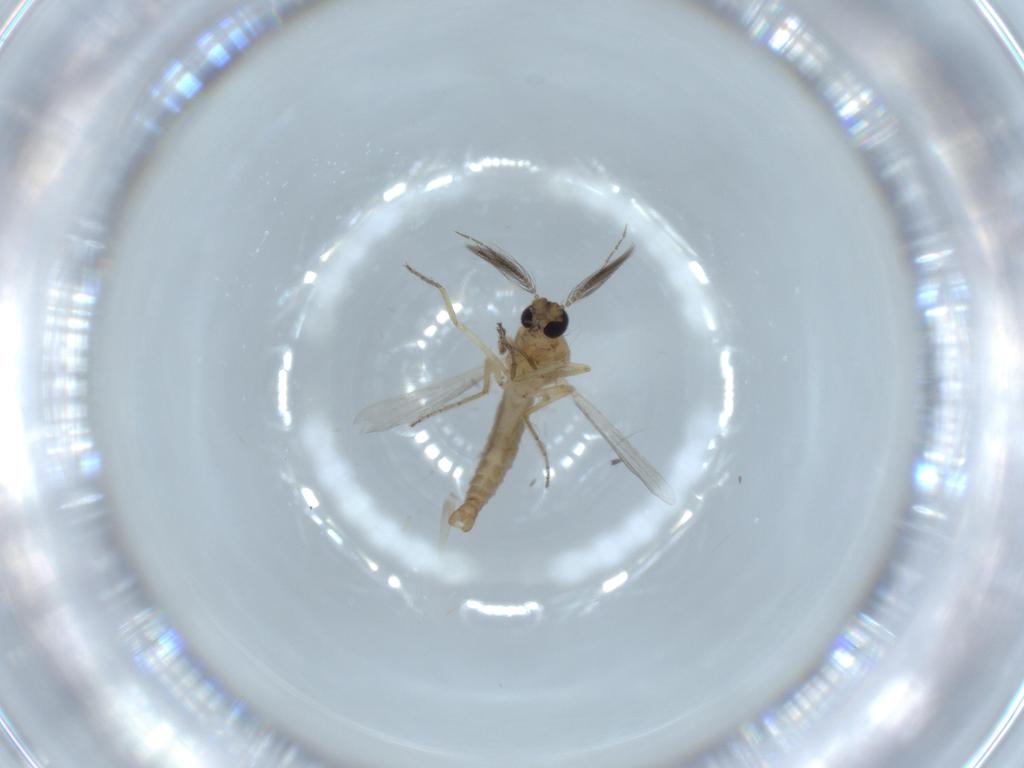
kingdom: Animalia
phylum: Arthropoda
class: Insecta
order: Diptera
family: Ceratopogonidae
